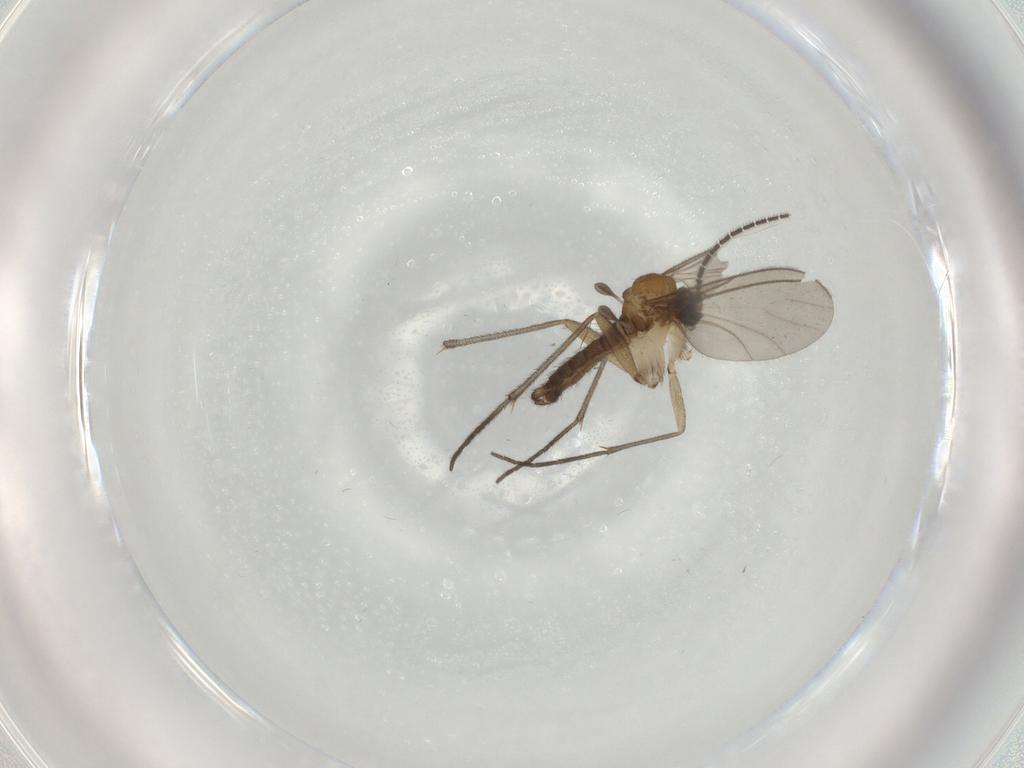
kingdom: Animalia
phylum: Arthropoda
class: Insecta
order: Diptera
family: Sciaridae
